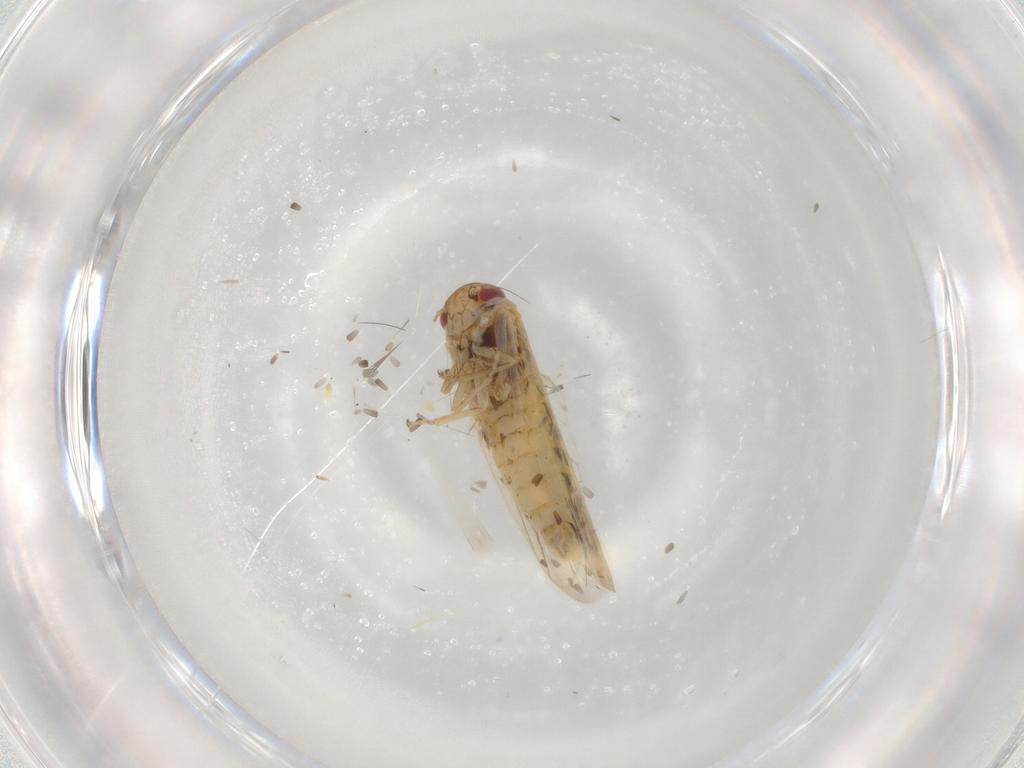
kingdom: Animalia
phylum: Arthropoda
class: Insecta
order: Hemiptera
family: Cicadellidae
